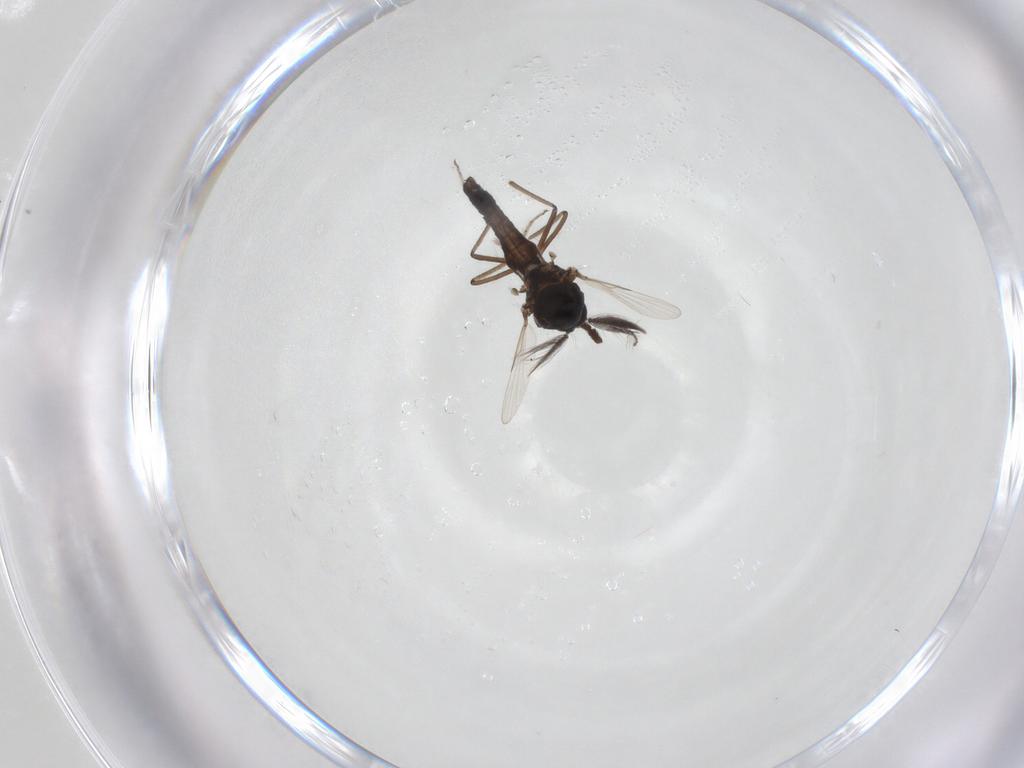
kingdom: Animalia
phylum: Arthropoda
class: Insecta
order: Diptera
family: Ceratopogonidae
